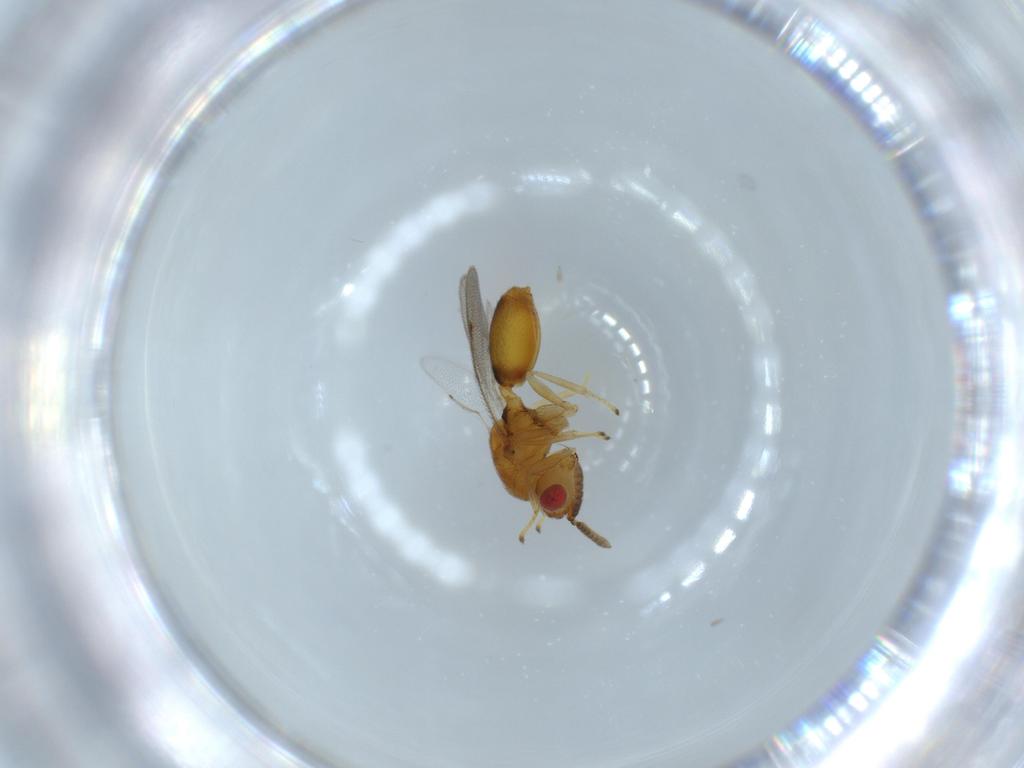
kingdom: Animalia
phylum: Arthropoda
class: Insecta
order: Hymenoptera
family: Eurytomidae
